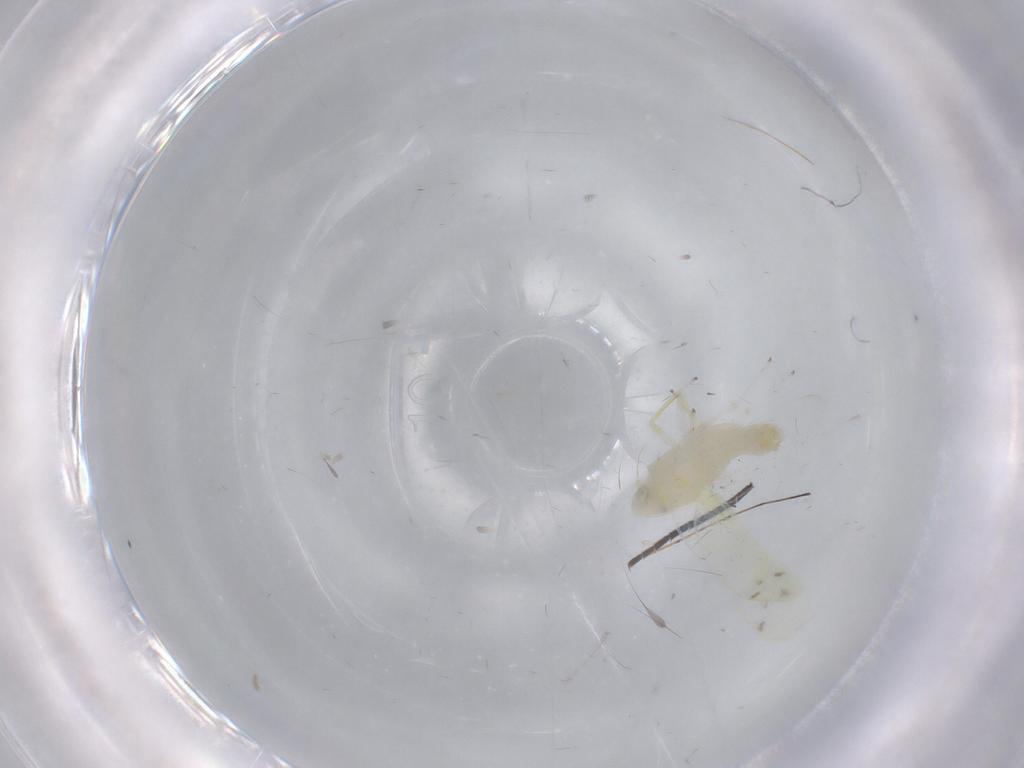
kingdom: Animalia
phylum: Arthropoda
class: Insecta
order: Hemiptera
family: Cicadellidae
